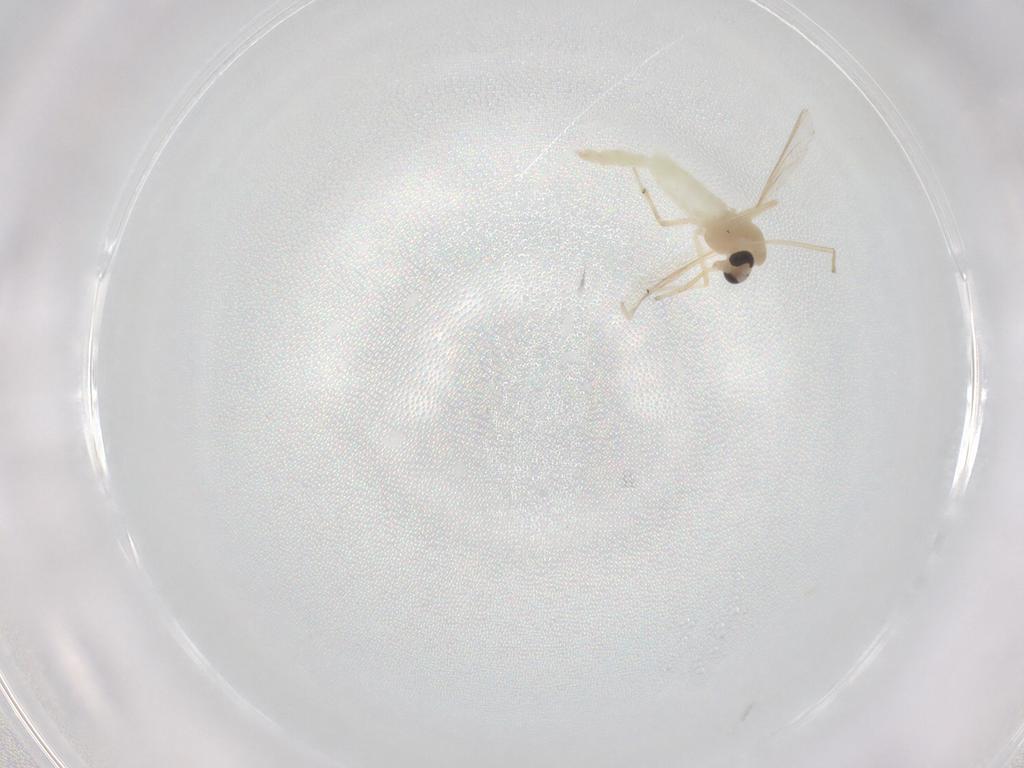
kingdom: Animalia
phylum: Arthropoda
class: Insecta
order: Diptera
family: Chironomidae
